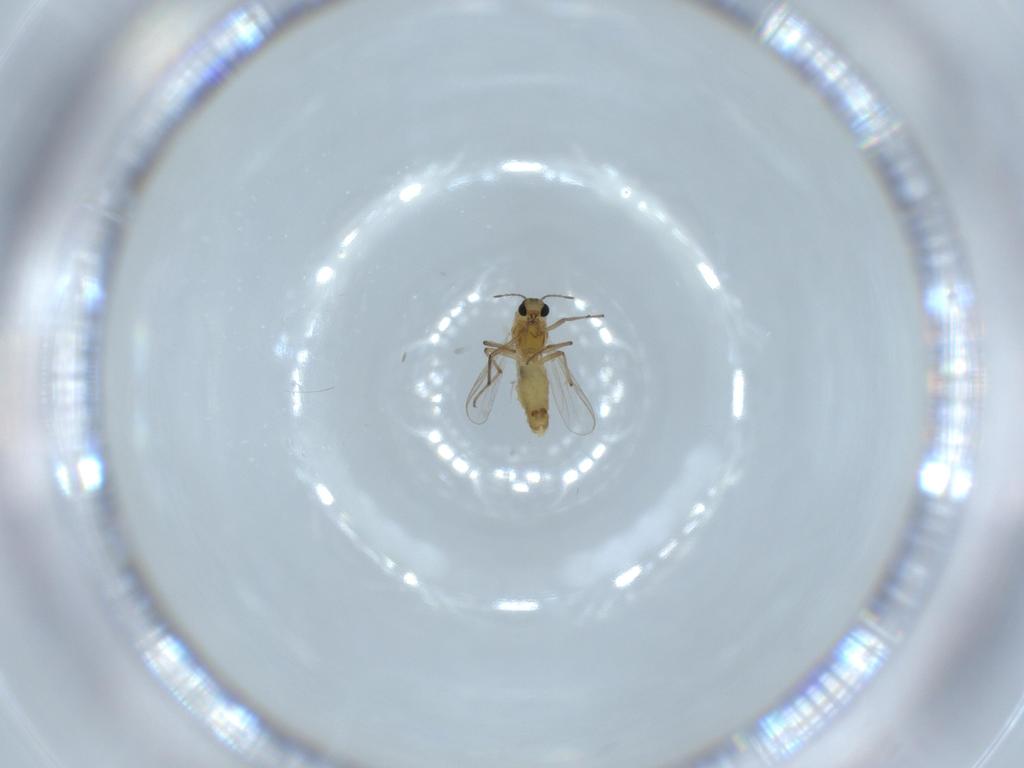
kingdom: Animalia
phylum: Arthropoda
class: Insecta
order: Diptera
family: Chironomidae
